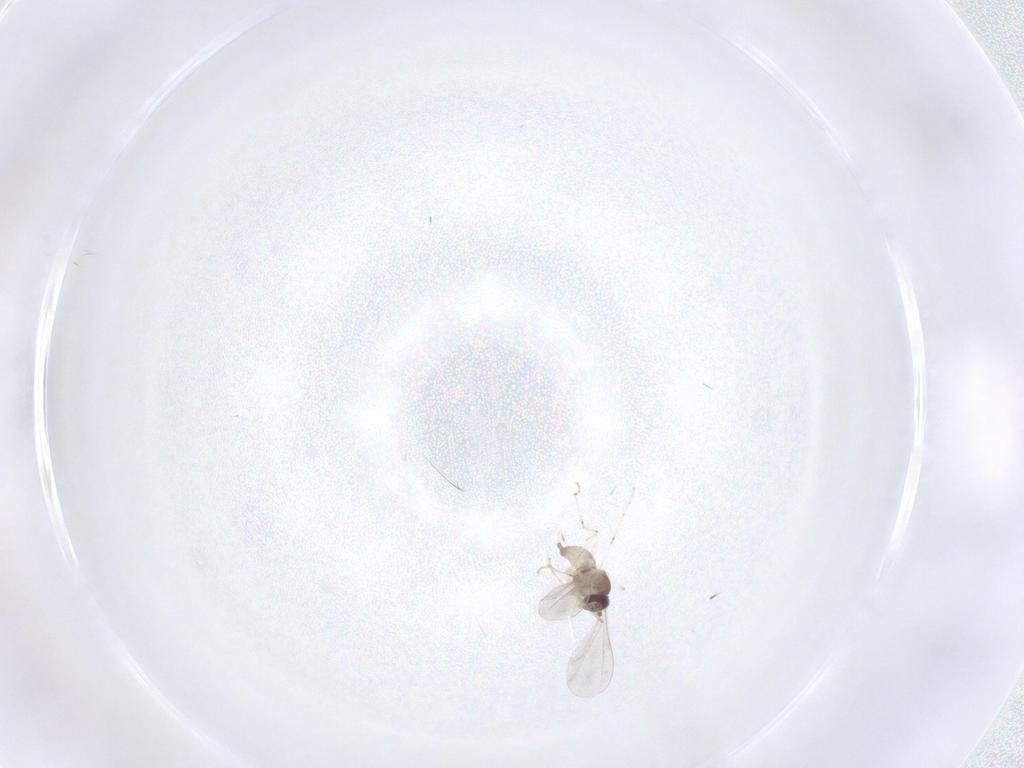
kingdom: Animalia
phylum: Arthropoda
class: Insecta
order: Diptera
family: Cecidomyiidae
